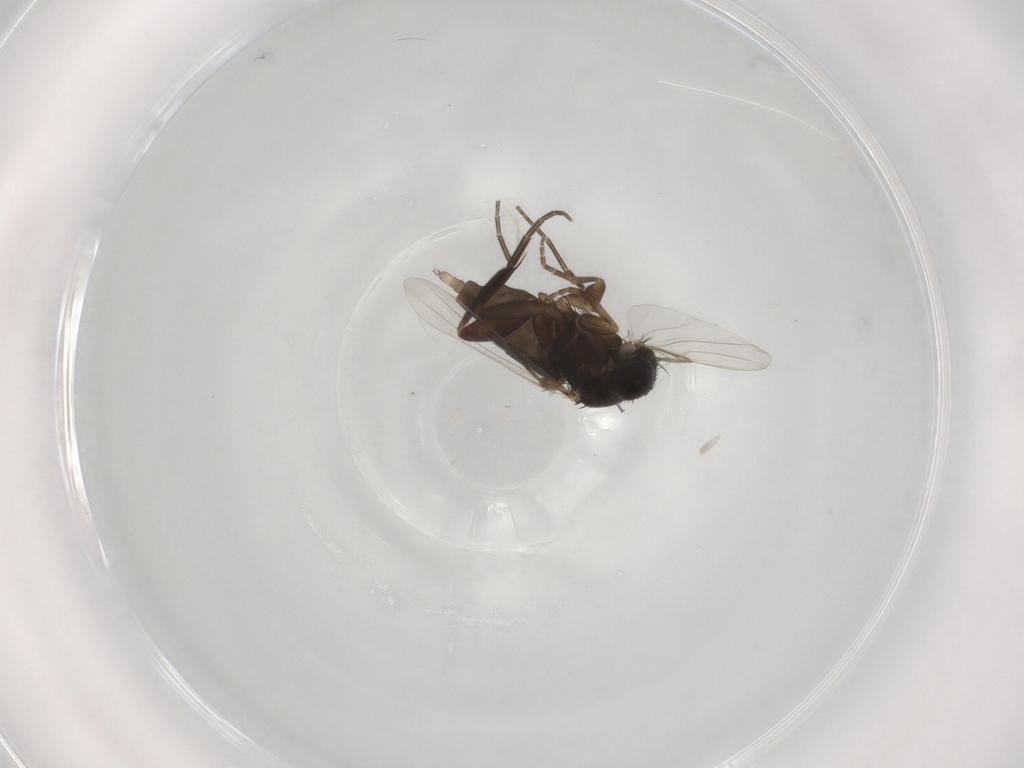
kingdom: Animalia
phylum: Arthropoda
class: Insecta
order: Diptera
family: Phoridae
